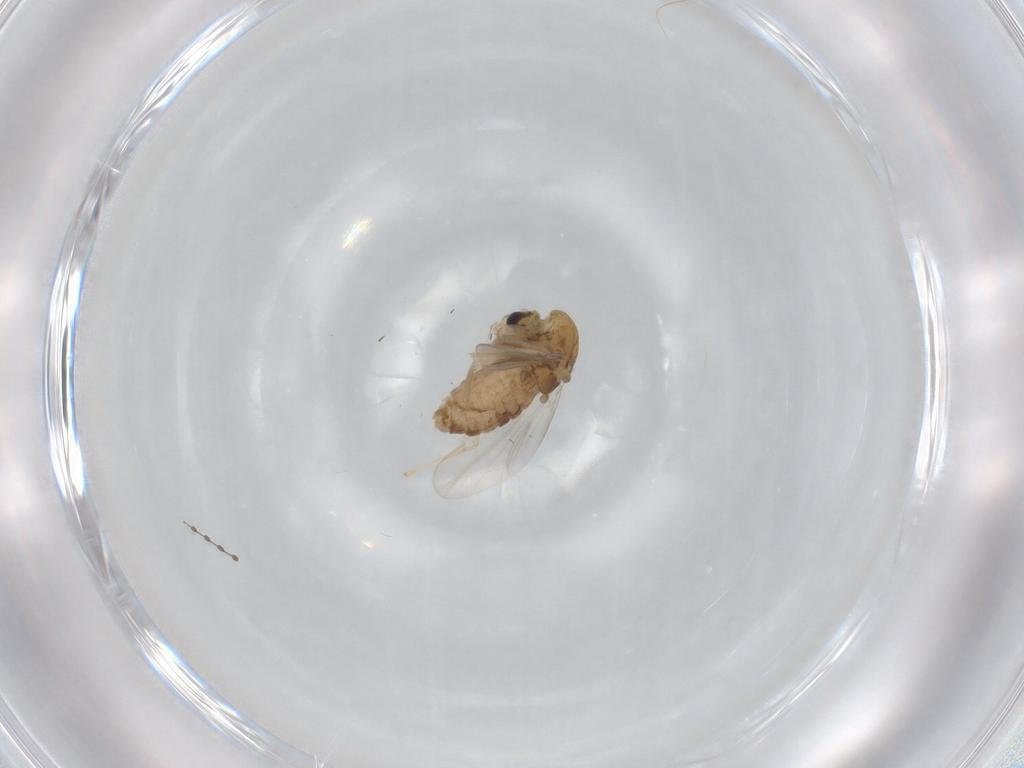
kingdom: Animalia
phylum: Arthropoda
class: Insecta
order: Diptera
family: Chironomidae
